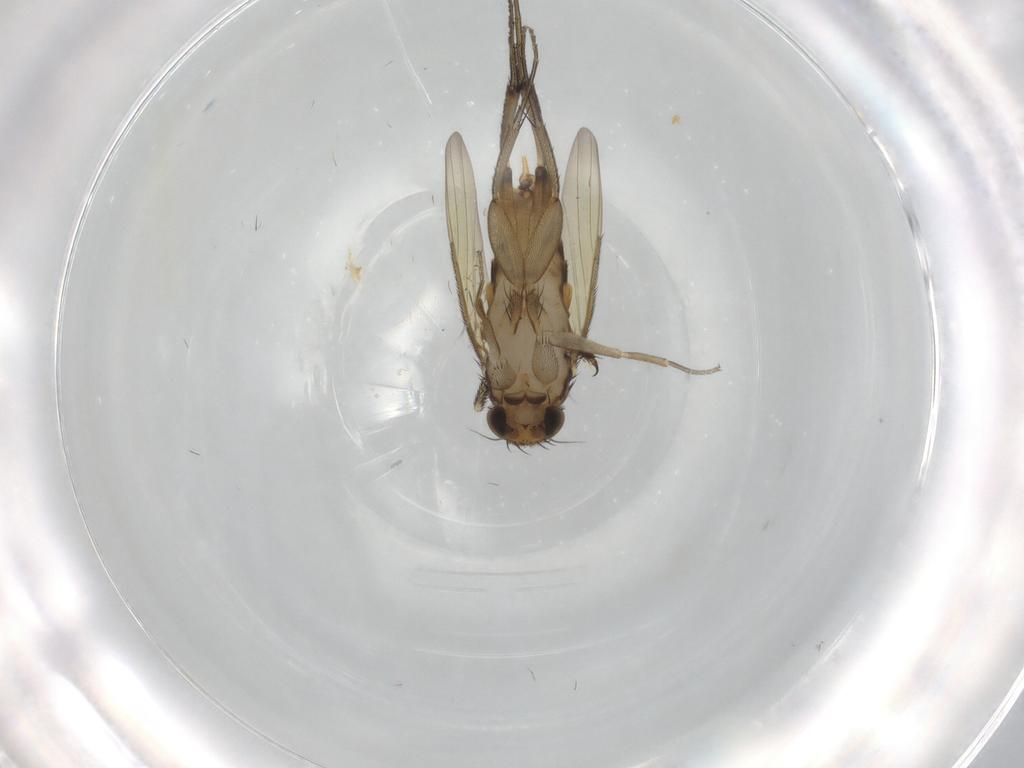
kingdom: Animalia
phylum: Arthropoda
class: Insecta
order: Diptera
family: Phoridae
